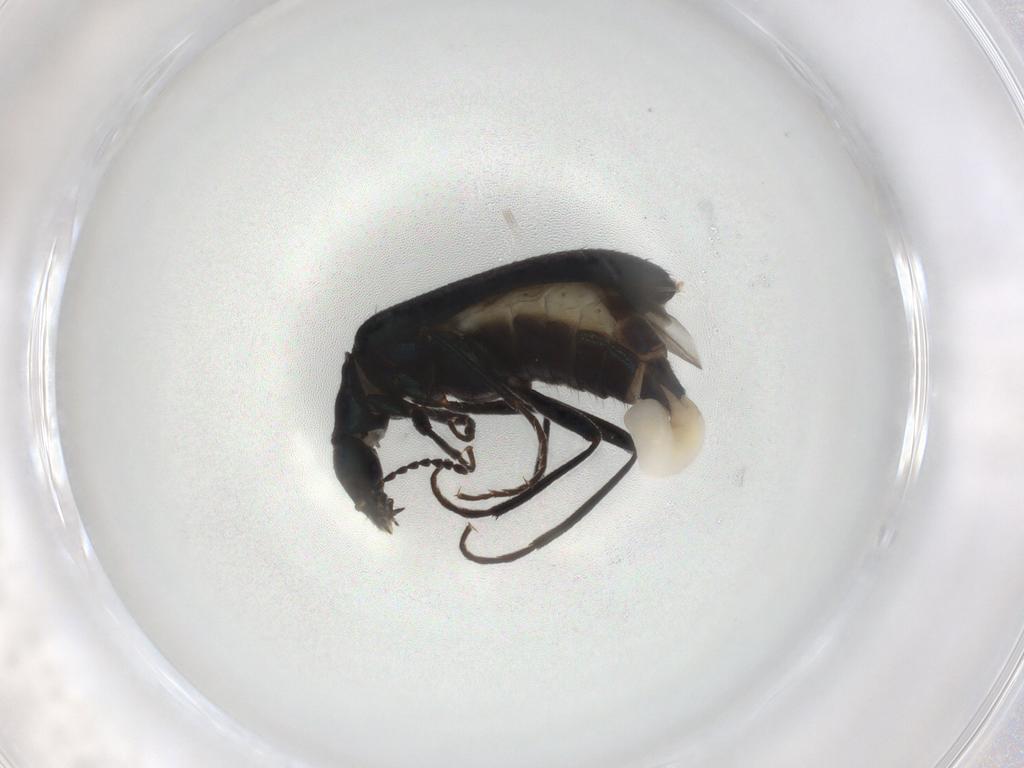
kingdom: Animalia
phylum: Arthropoda
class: Insecta
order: Coleoptera
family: Melyridae
